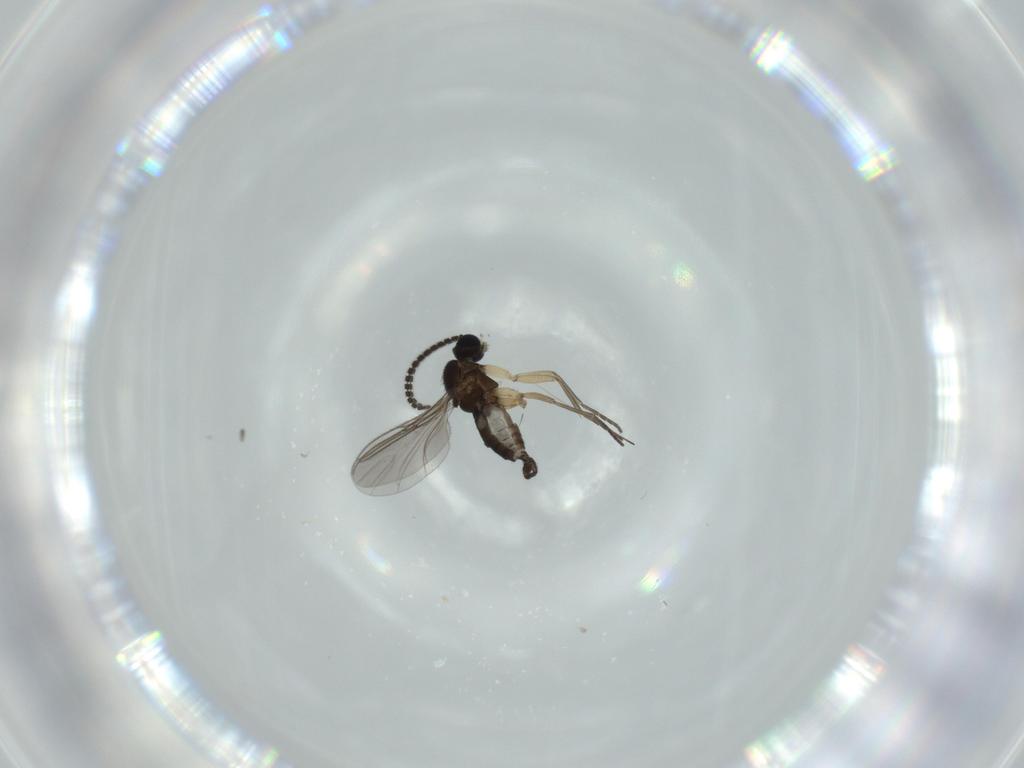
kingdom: Animalia
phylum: Arthropoda
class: Insecta
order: Diptera
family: Sciaridae
